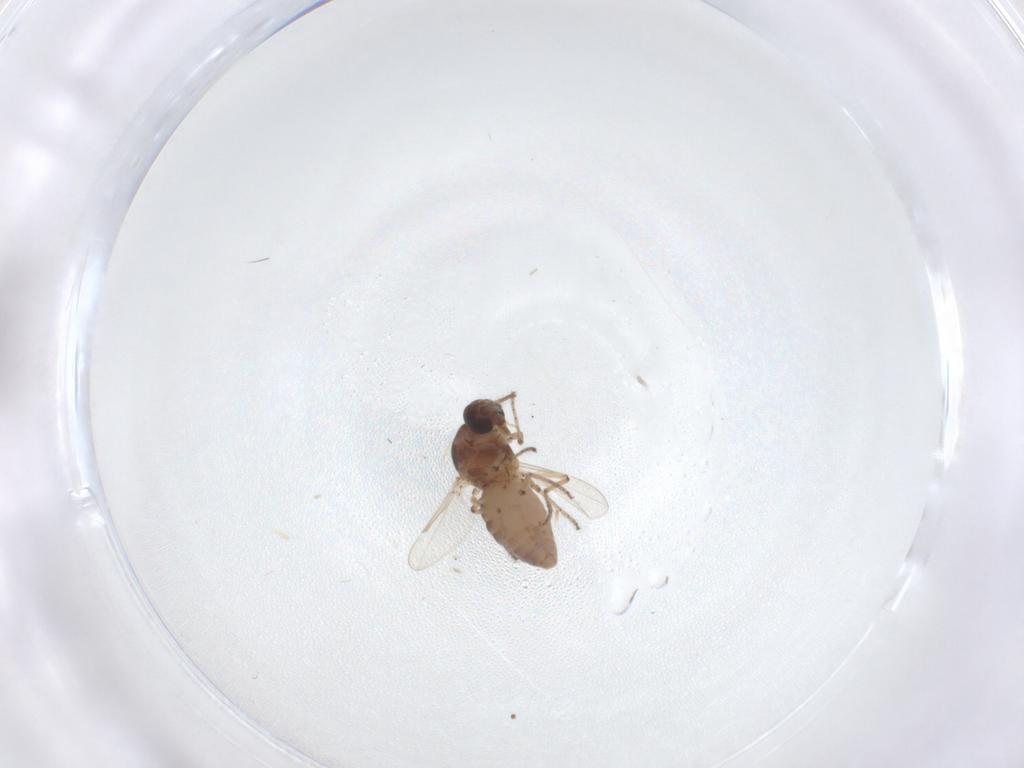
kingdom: Animalia
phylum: Arthropoda
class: Insecta
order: Diptera
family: Ceratopogonidae
